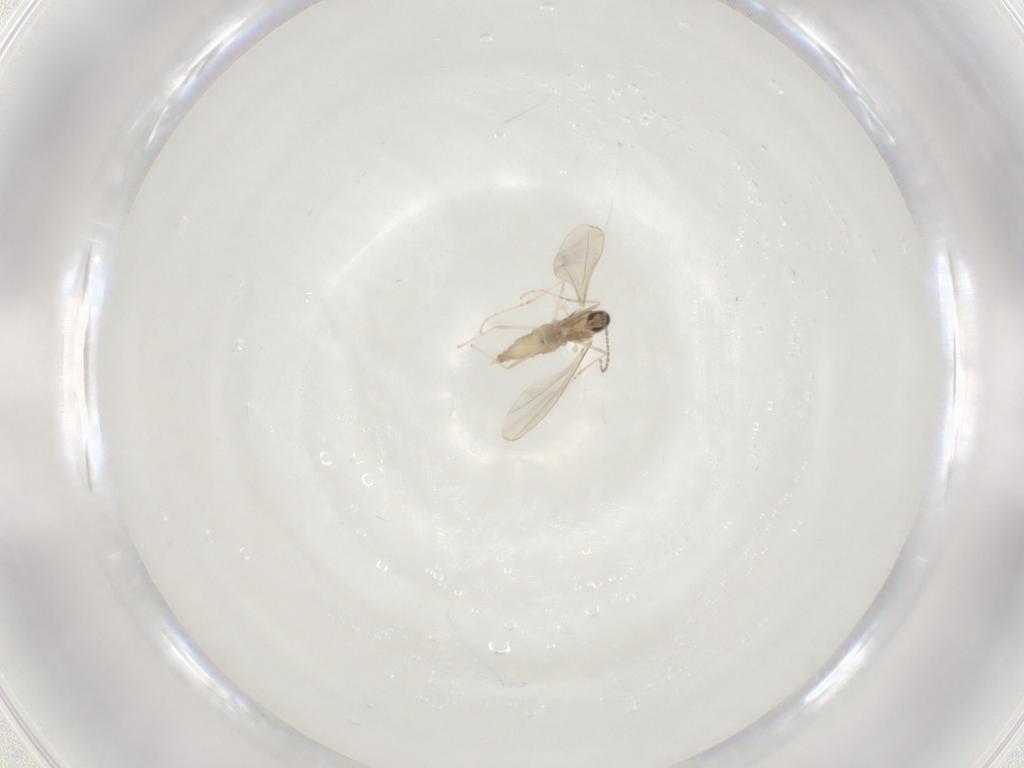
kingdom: Animalia
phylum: Arthropoda
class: Insecta
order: Diptera
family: Cecidomyiidae
